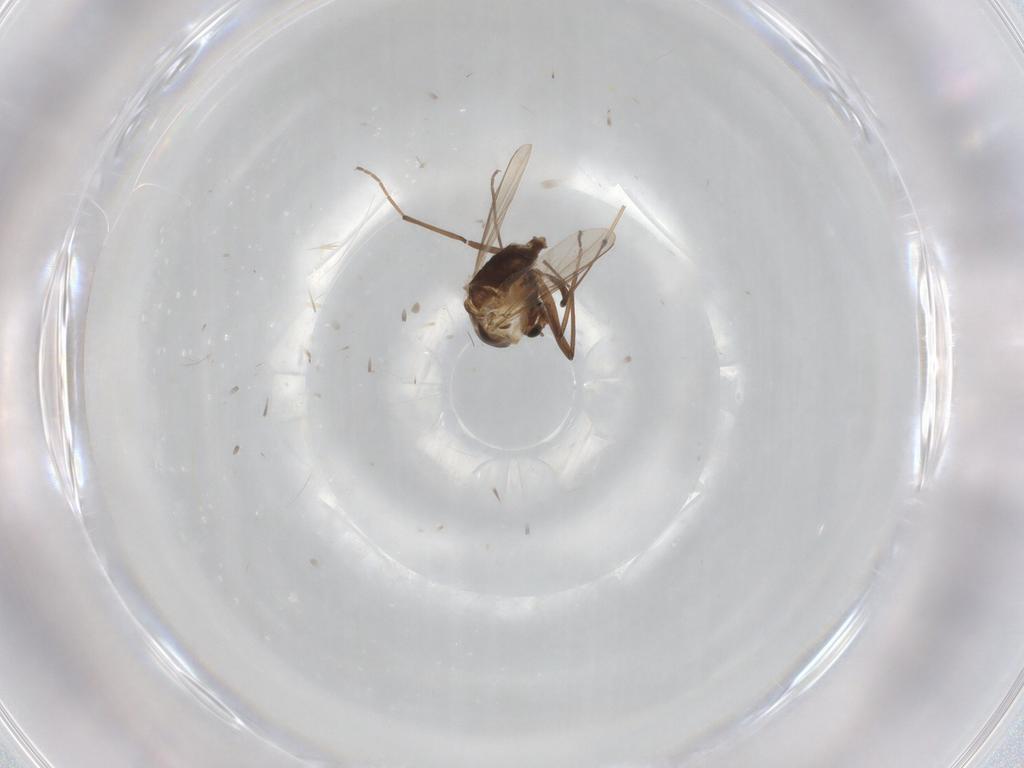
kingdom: Animalia
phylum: Arthropoda
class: Insecta
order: Diptera
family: Chironomidae
